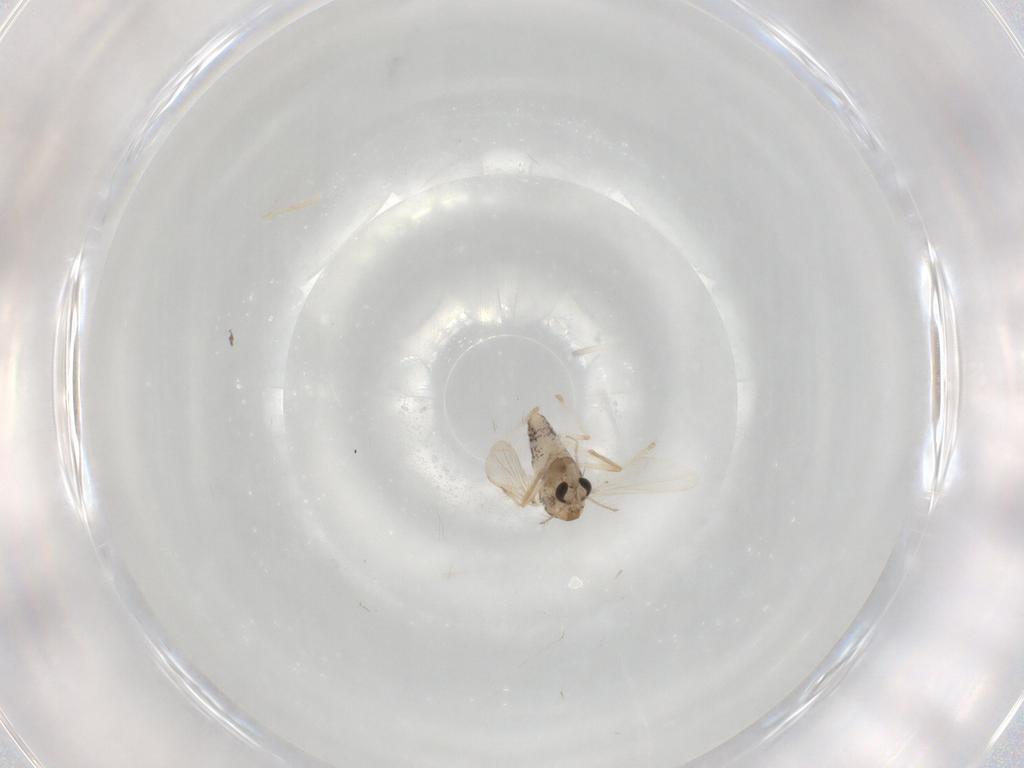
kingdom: Animalia
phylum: Arthropoda
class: Insecta
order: Diptera
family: Chironomidae
